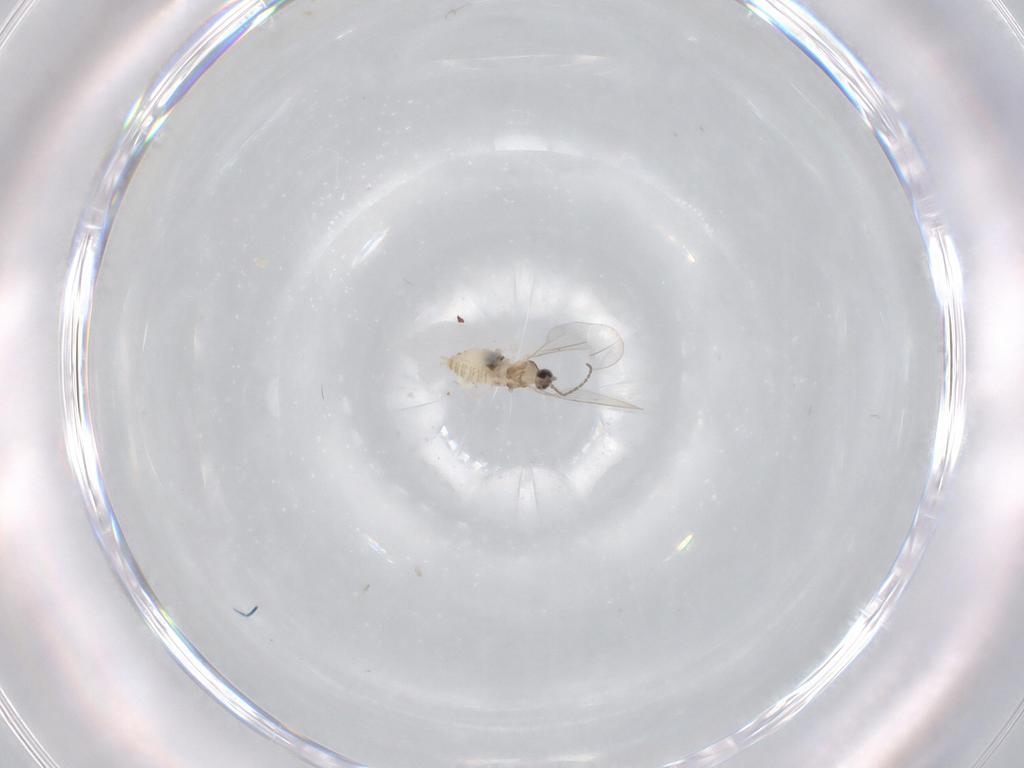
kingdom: Animalia
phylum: Arthropoda
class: Insecta
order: Diptera
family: Cecidomyiidae
